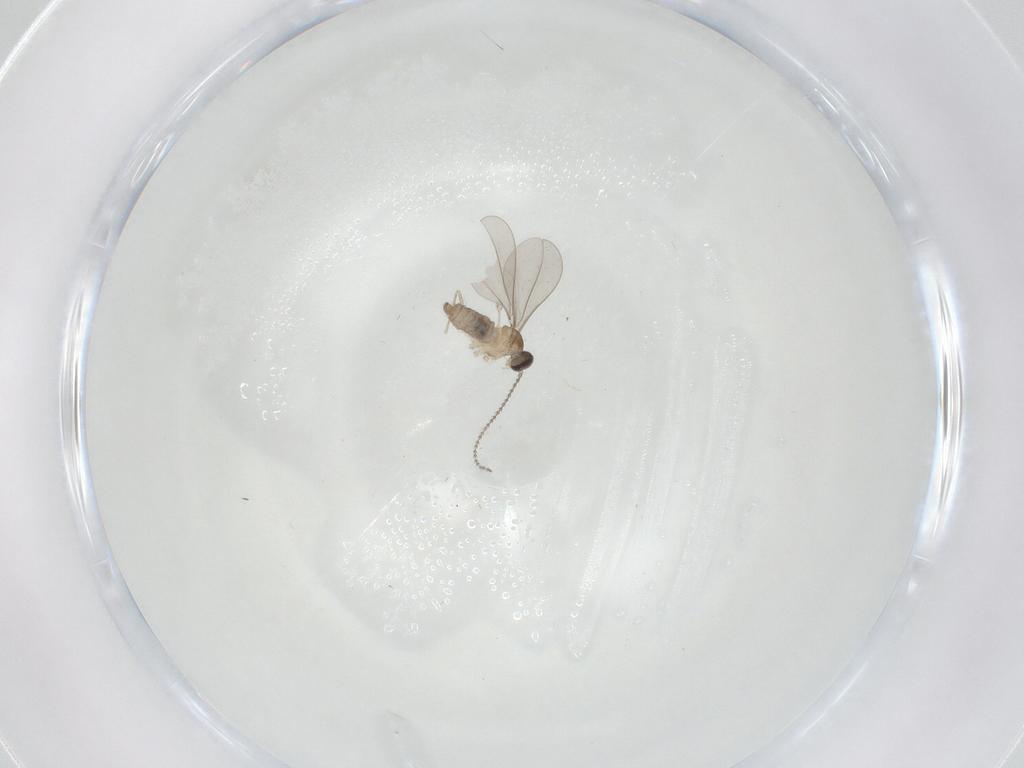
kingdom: Animalia
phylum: Arthropoda
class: Insecta
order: Diptera
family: Cecidomyiidae
